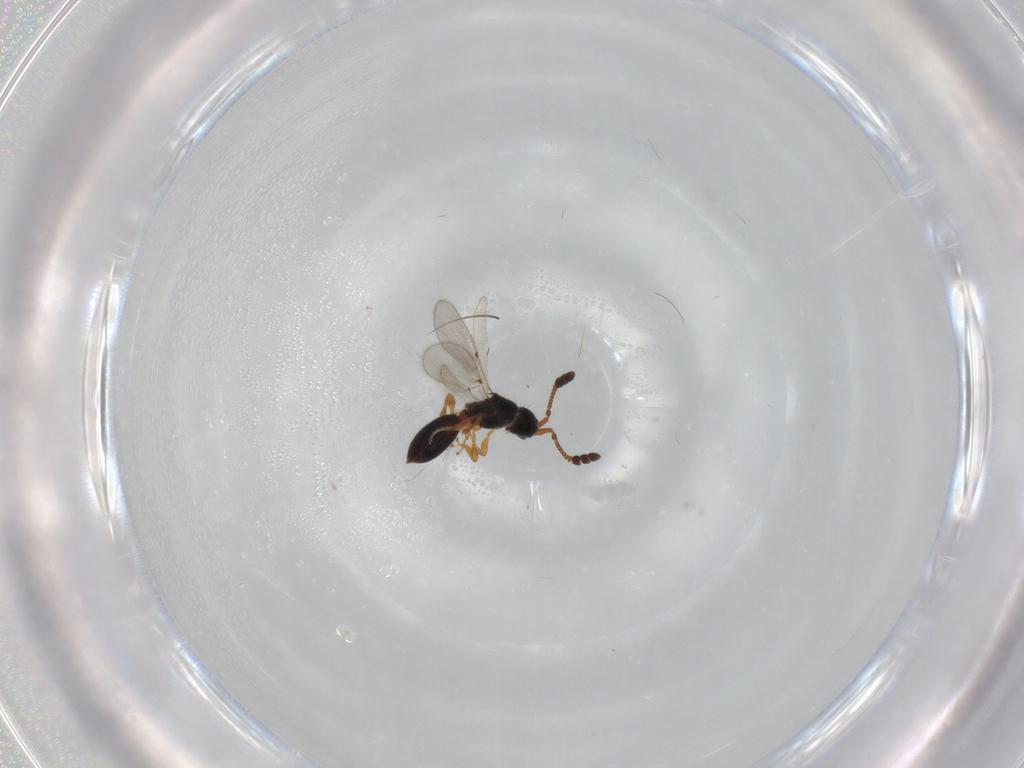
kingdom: Animalia
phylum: Arthropoda
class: Insecta
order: Hymenoptera
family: Diapriidae
